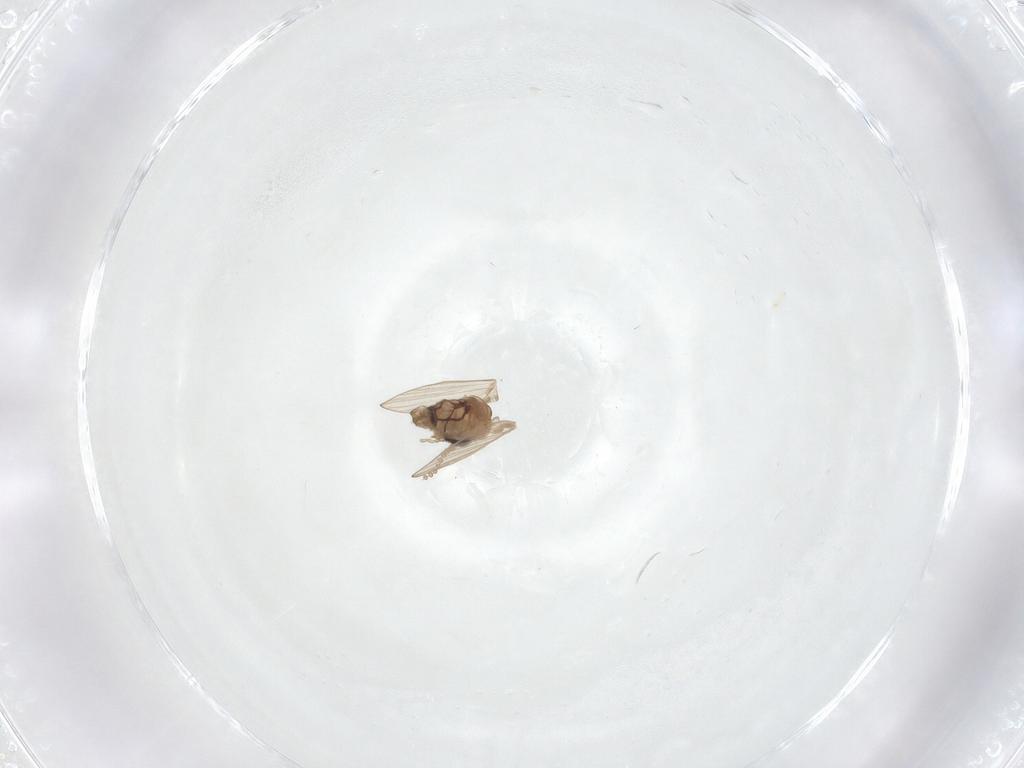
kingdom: Animalia
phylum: Arthropoda
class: Insecta
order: Diptera
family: Psychodidae
